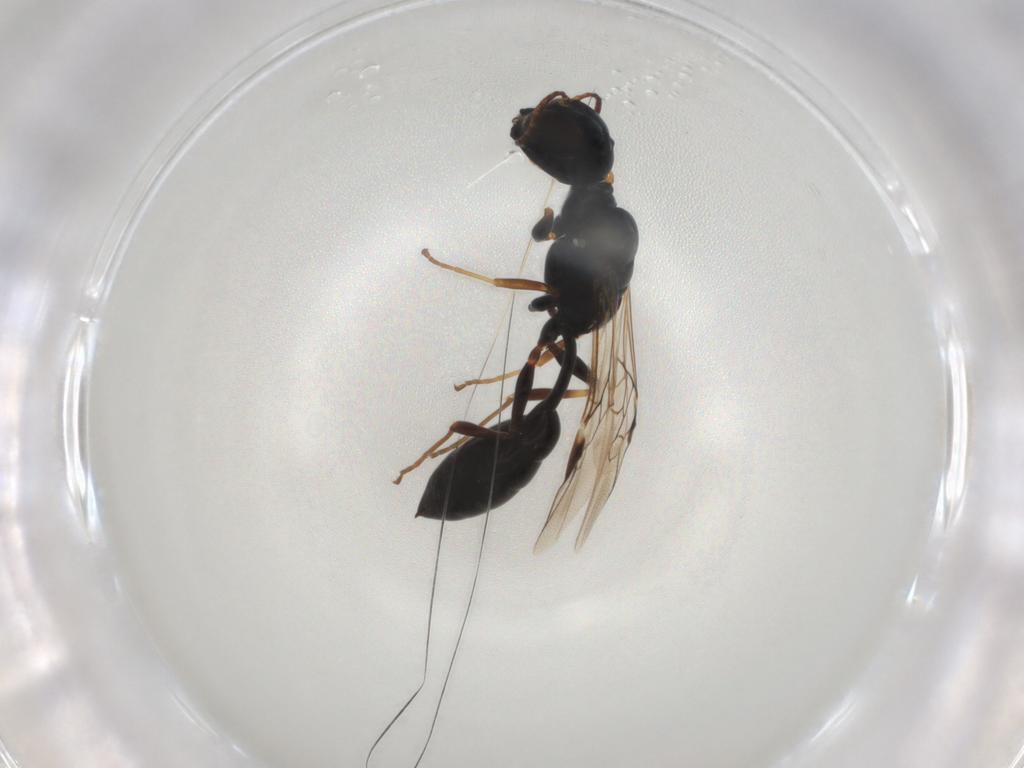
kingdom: Animalia
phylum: Arthropoda
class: Insecta
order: Hymenoptera
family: Crabronidae
